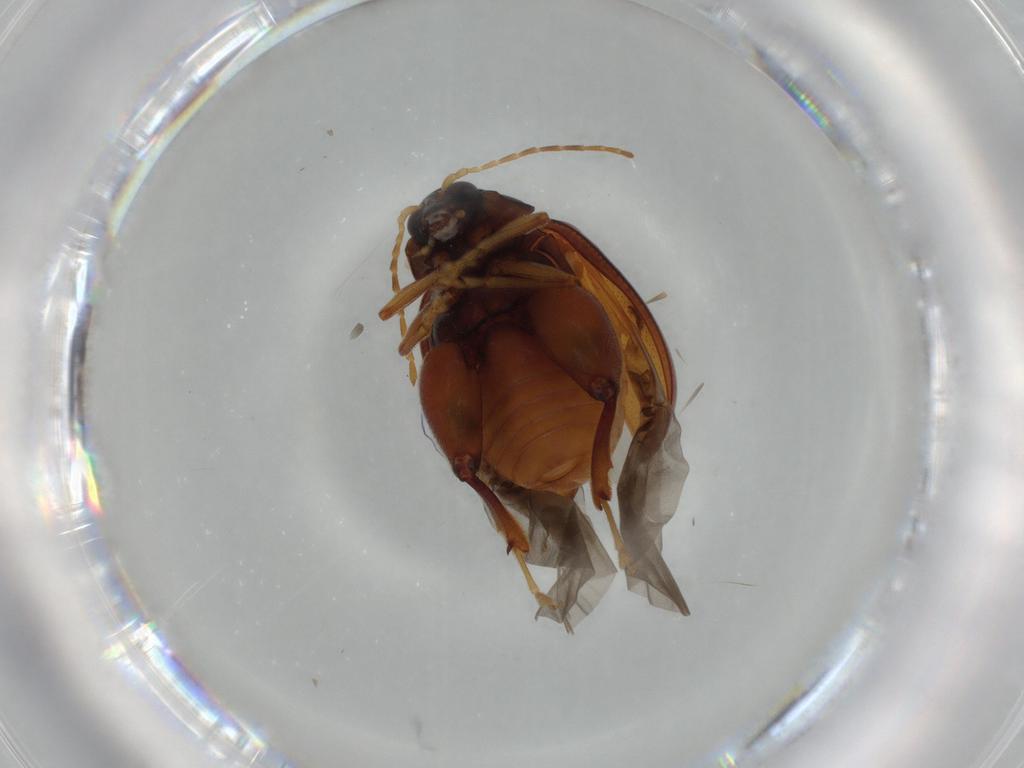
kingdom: Animalia
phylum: Arthropoda
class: Insecta
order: Coleoptera
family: Chrysomelidae
